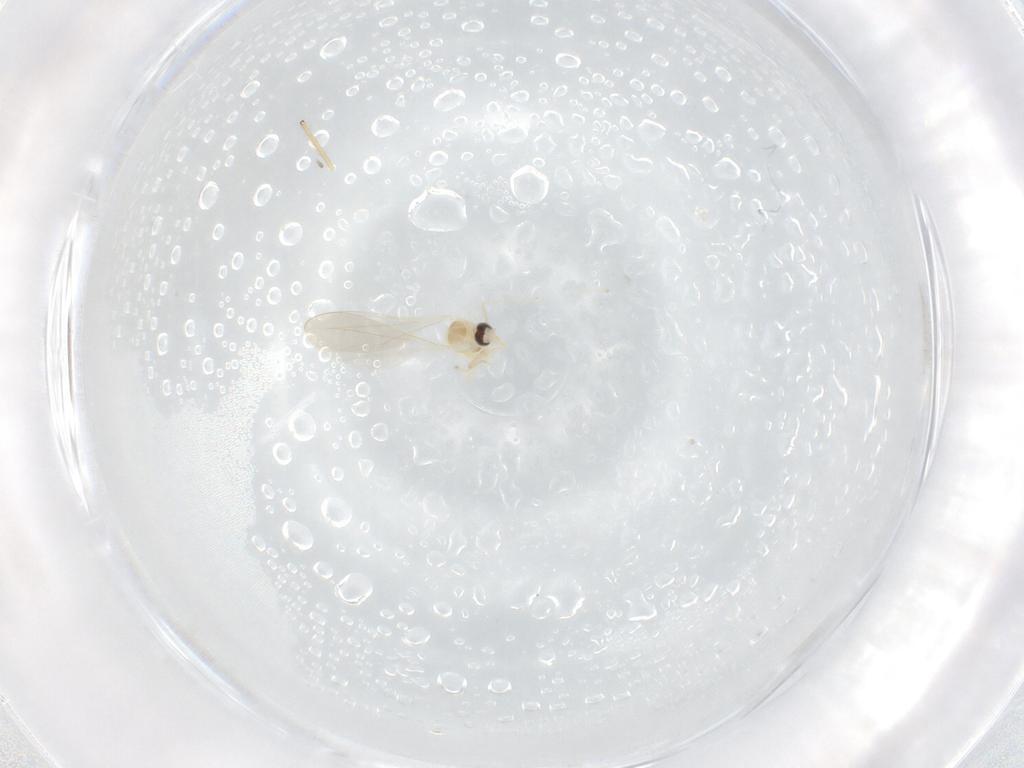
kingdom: Animalia
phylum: Arthropoda
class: Insecta
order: Diptera
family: Cecidomyiidae
